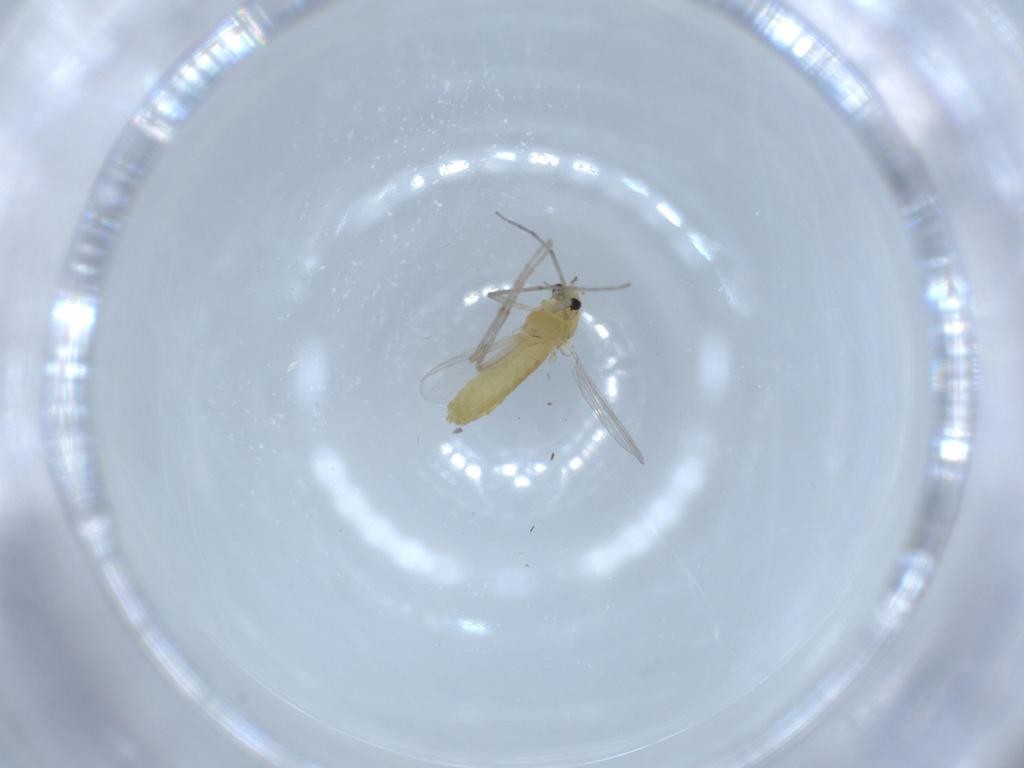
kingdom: Animalia
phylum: Arthropoda
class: Insecta
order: Diptera
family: Chironomidae
